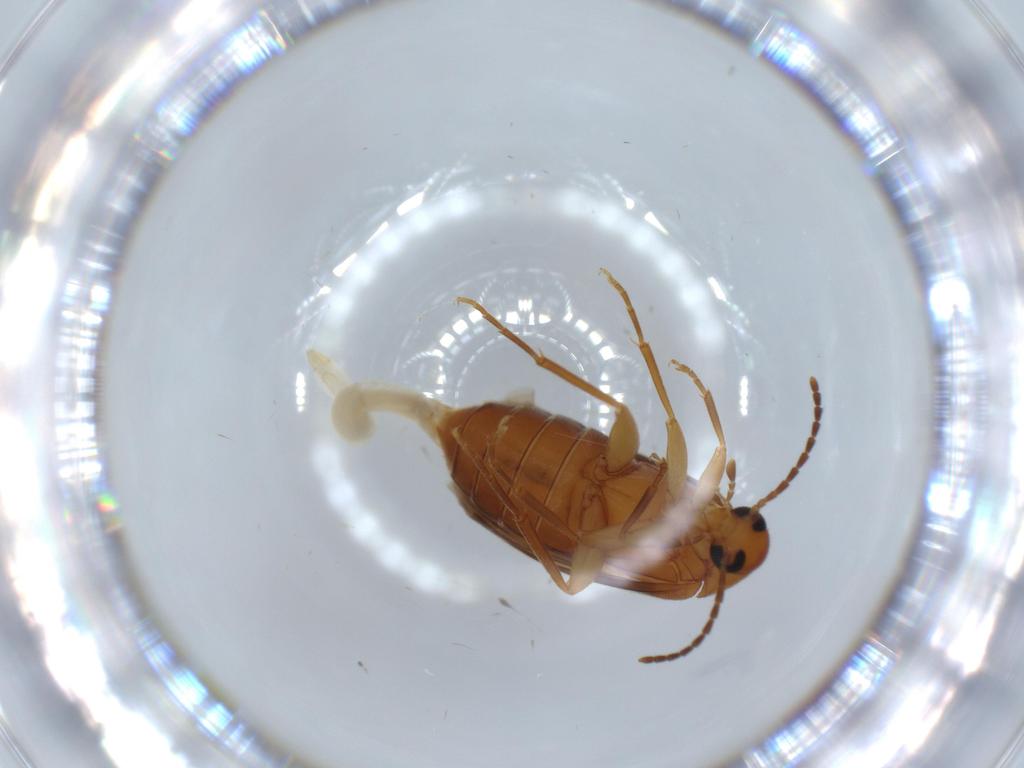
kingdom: Animalia
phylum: Arthropoda
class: Insecta
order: Coleoptera
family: Scraptiidae
